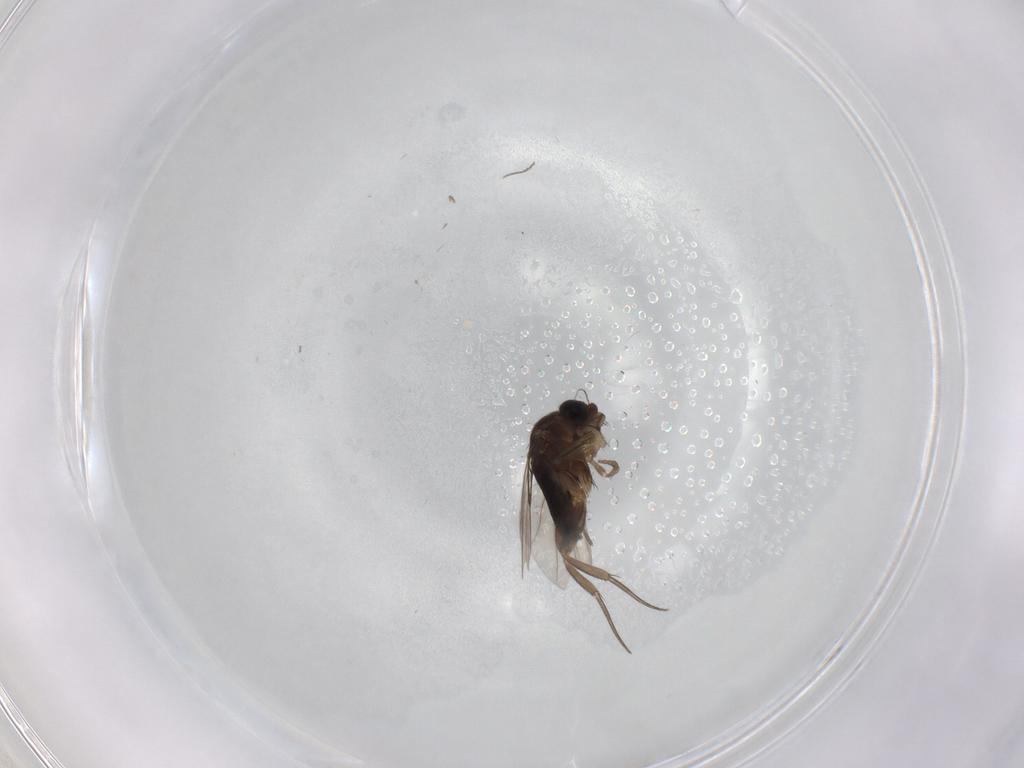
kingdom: Animalia
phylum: Arthropoda
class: Insecta
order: Diptera
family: Phoridae
